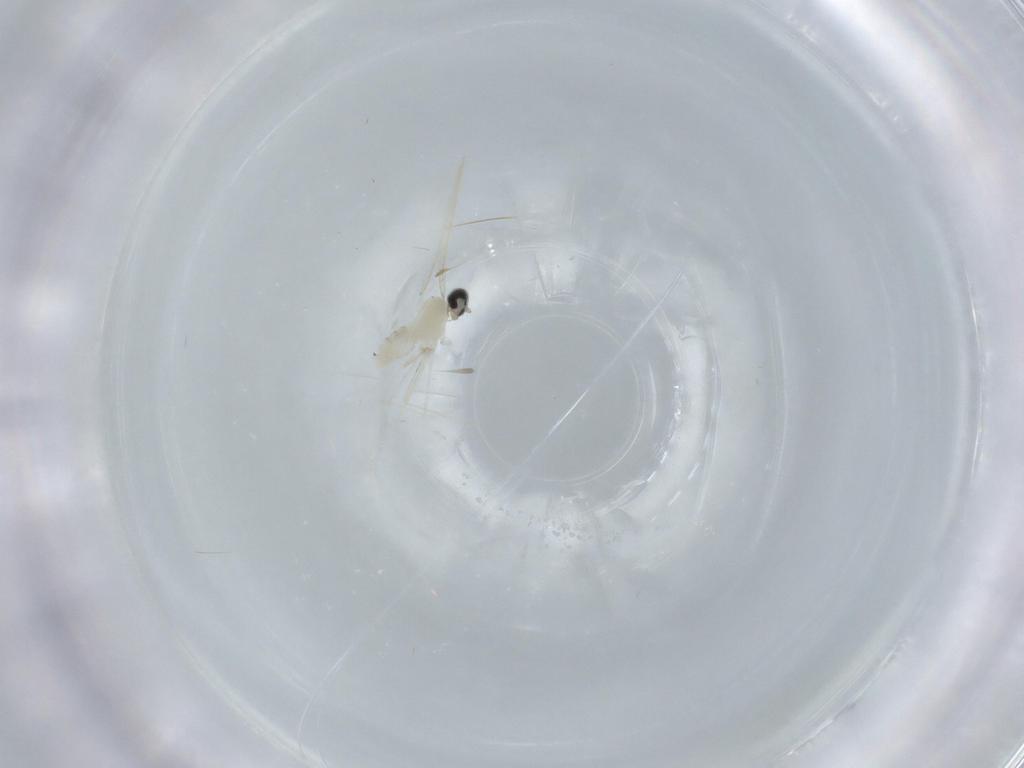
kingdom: Animalia
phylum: Arthropoda
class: Insecta
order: Diptera
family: Cecidomyiidae
